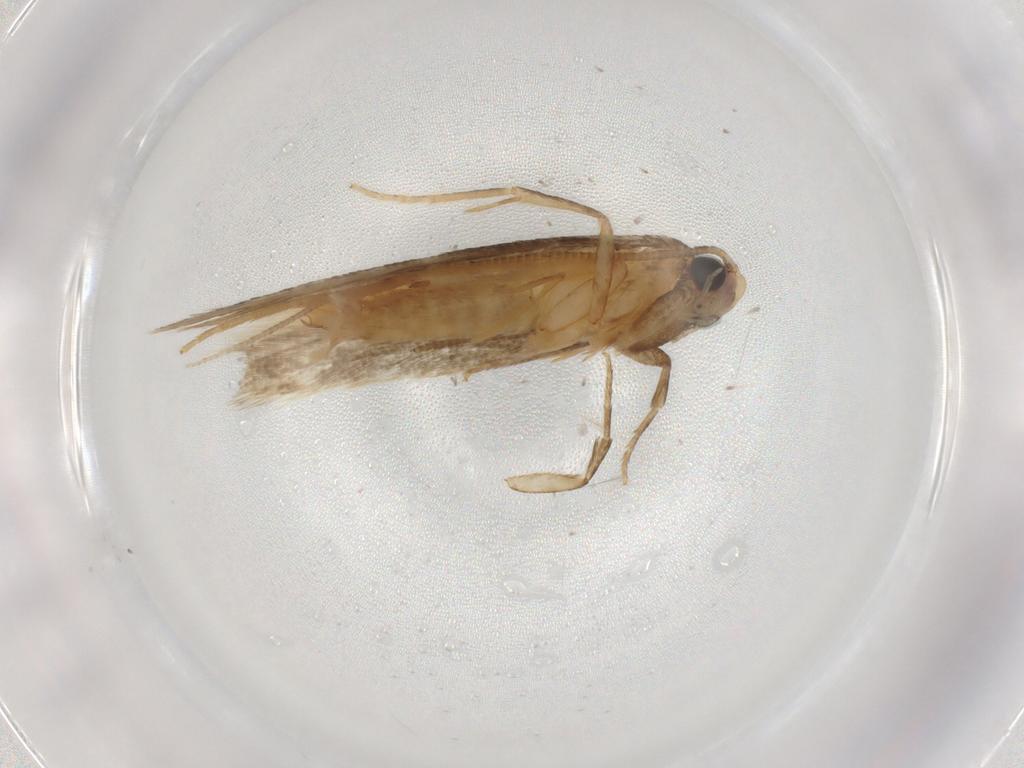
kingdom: Animalia
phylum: Arthropoda
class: Insecta
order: Lepidoptera
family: Tineidae
